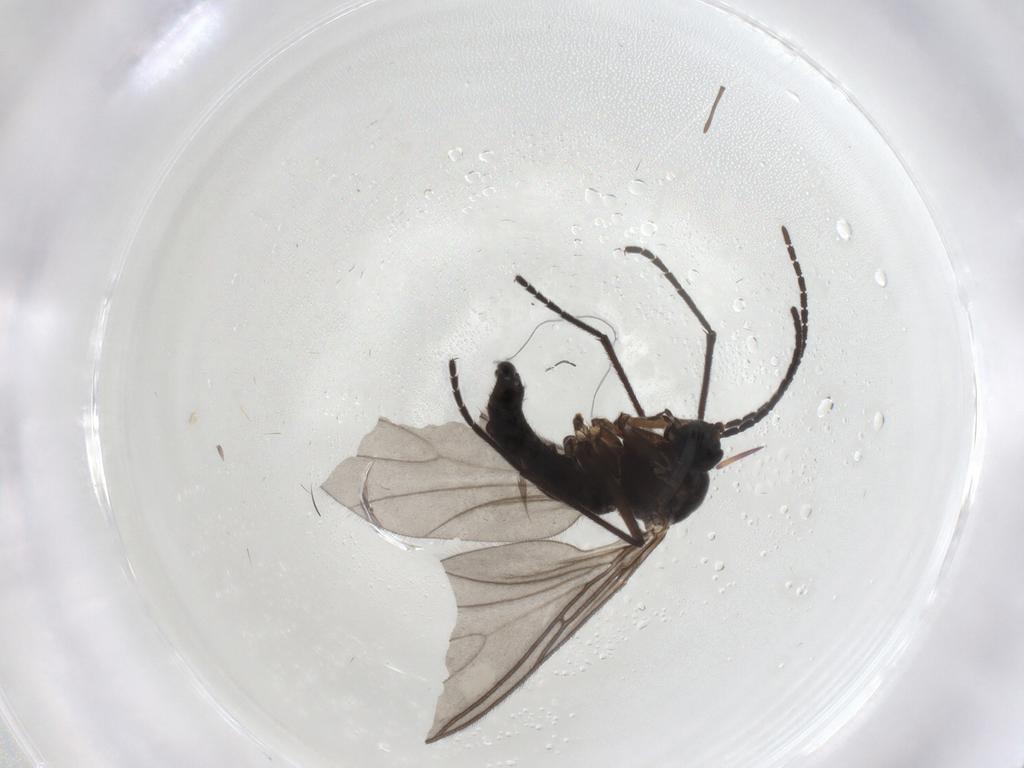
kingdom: Animalia
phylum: Arthropoda
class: Insecta
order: Diptera
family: Sciaridae
